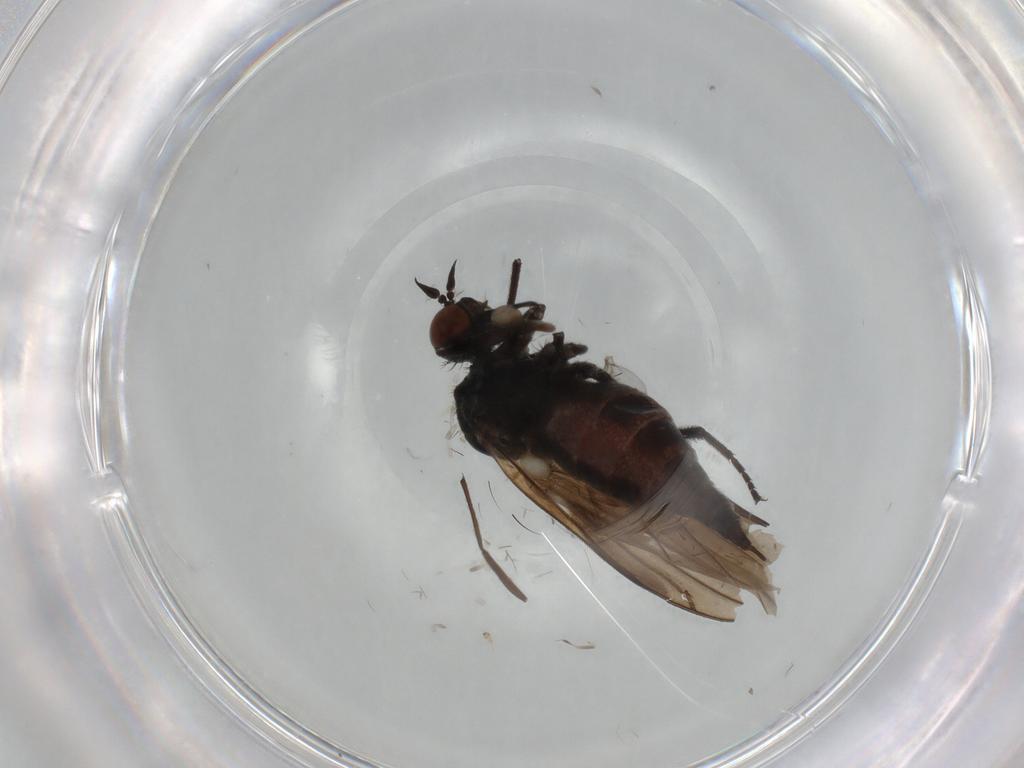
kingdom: Animalia
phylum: Arthropoda
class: Insecta
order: Diptera
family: Empididae
